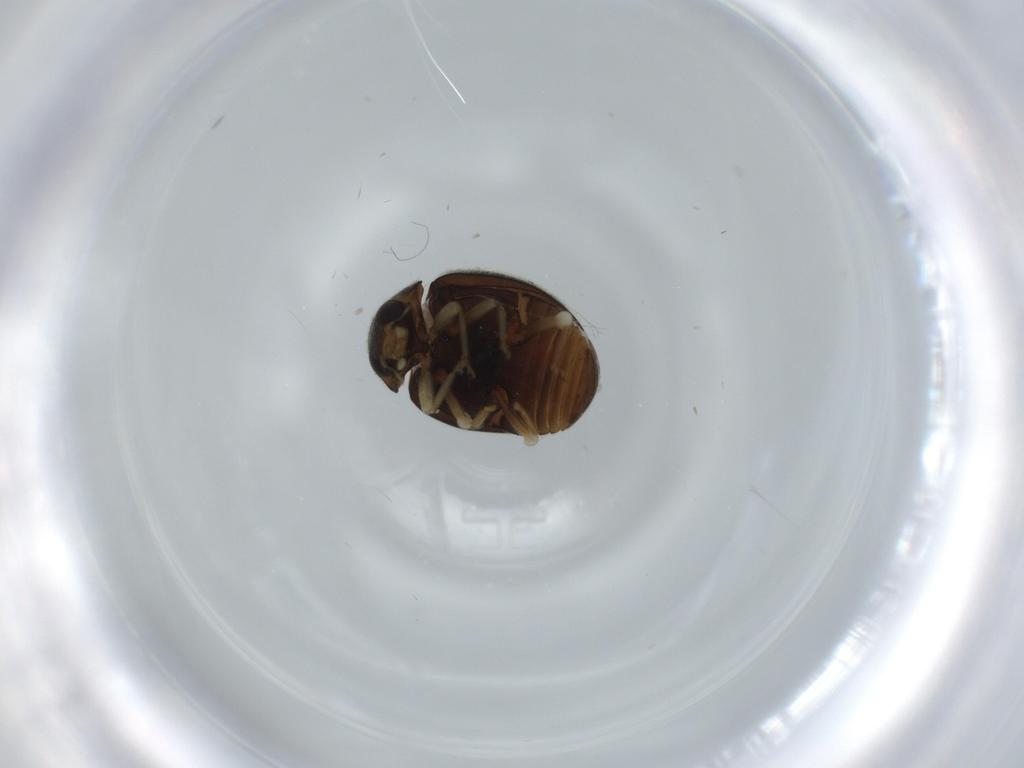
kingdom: Animalia
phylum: Arthropoda
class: Insecta
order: Coleoptera
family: Coccinellidae
